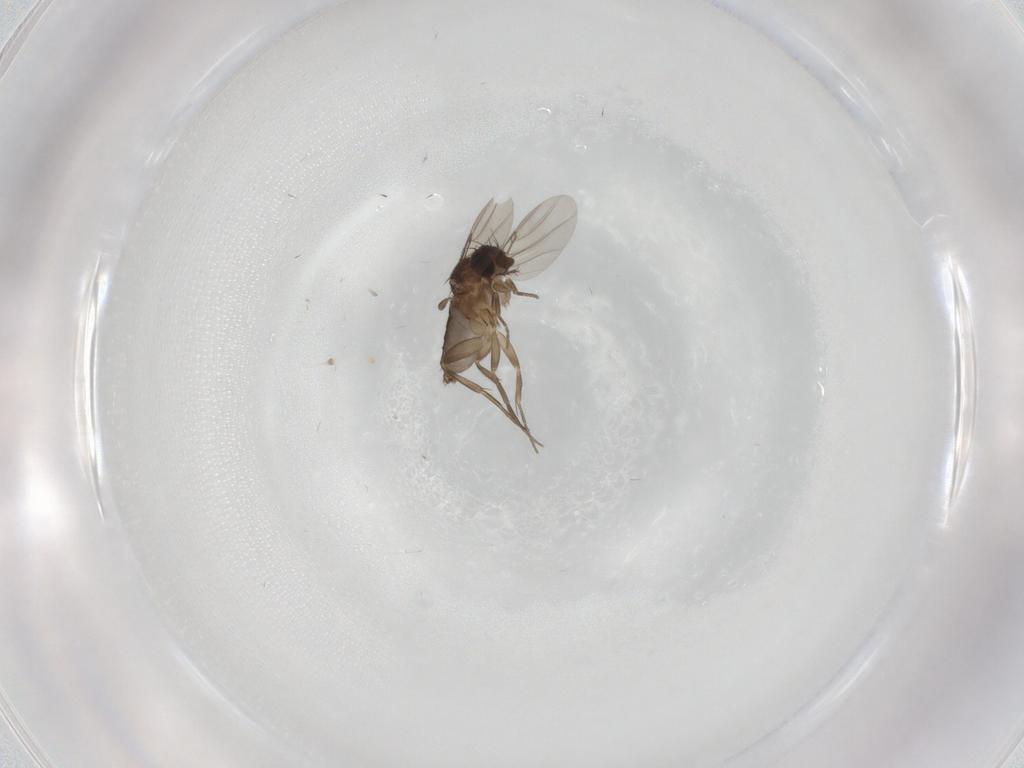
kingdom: Animalia
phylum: Arthropoda
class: Insecta
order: Diptera
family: Phoridae
